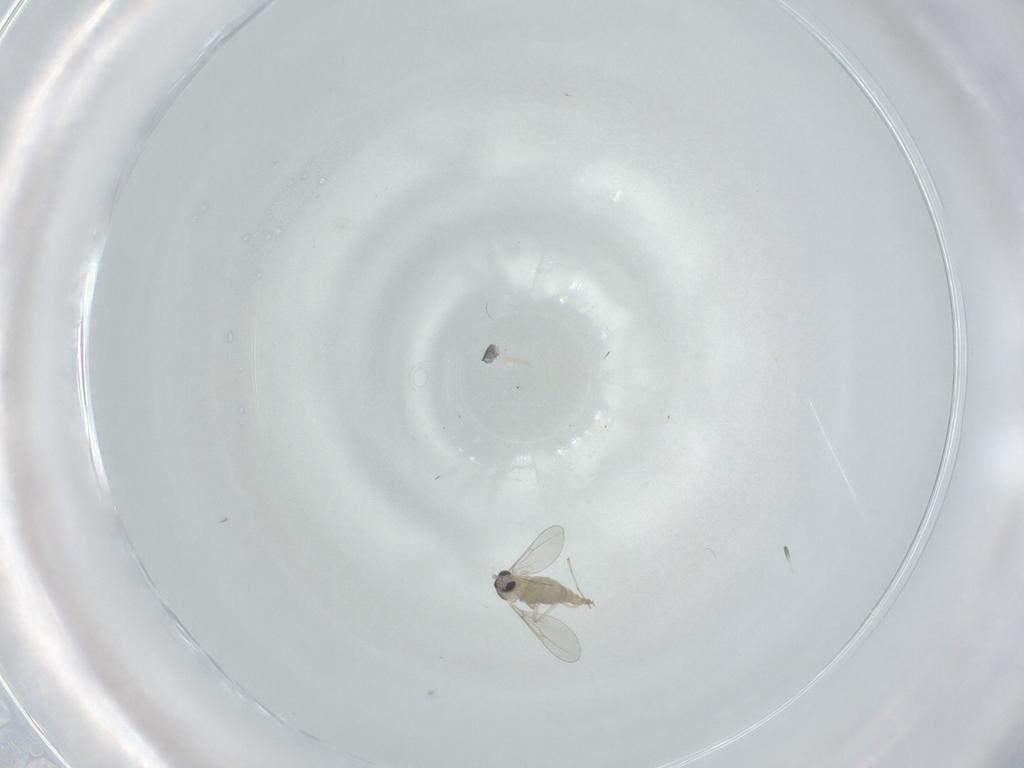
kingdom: Animalia
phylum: Arthropoda
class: Insecta
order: Diptera
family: Cecidomyiidae
